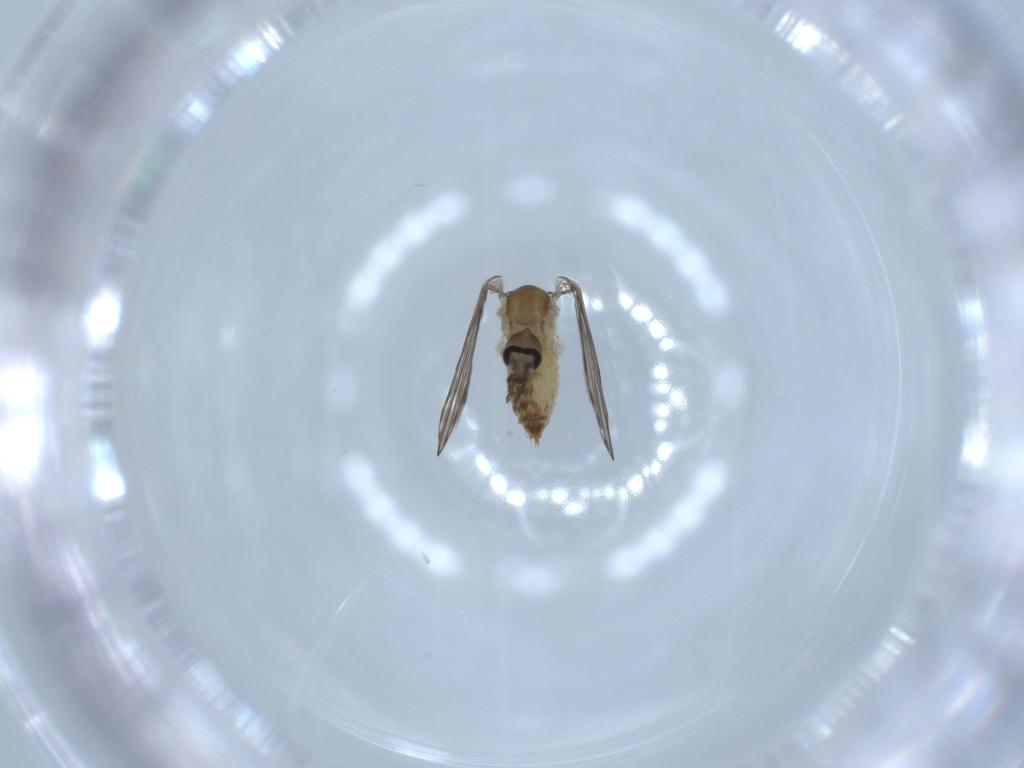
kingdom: Animalia
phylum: Arthropoda
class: Insecta
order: Diptera
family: Psychodidae
